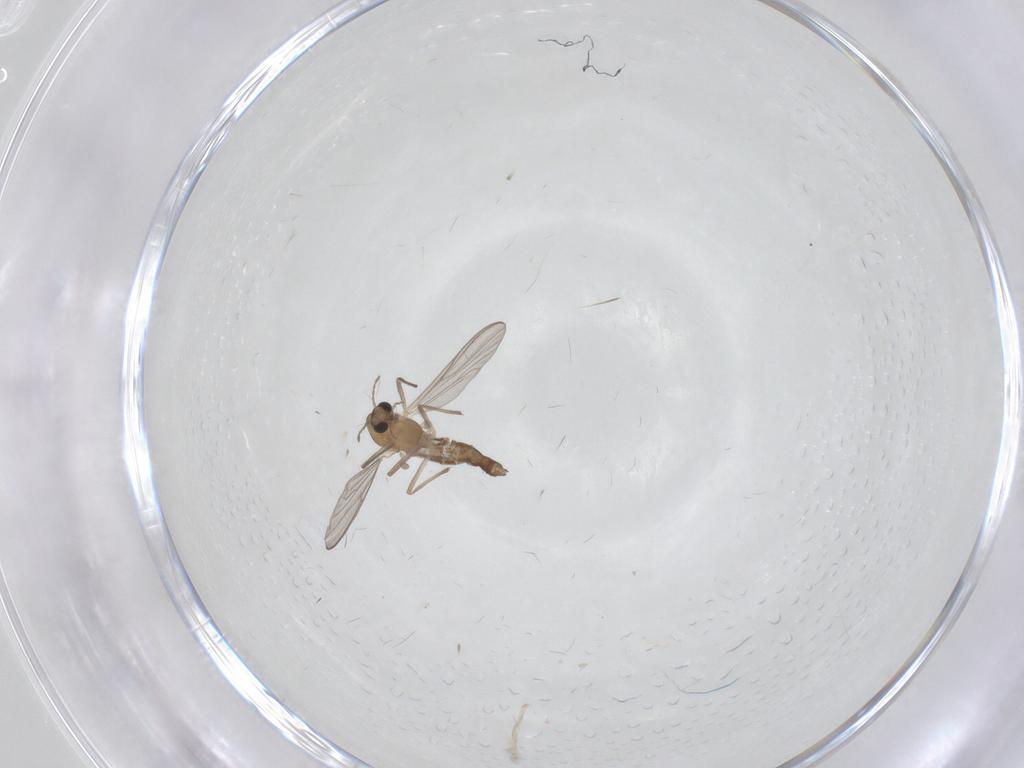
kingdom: Animalia
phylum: Arthropoda
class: Insecta
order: Diptera
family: Chironomidae
